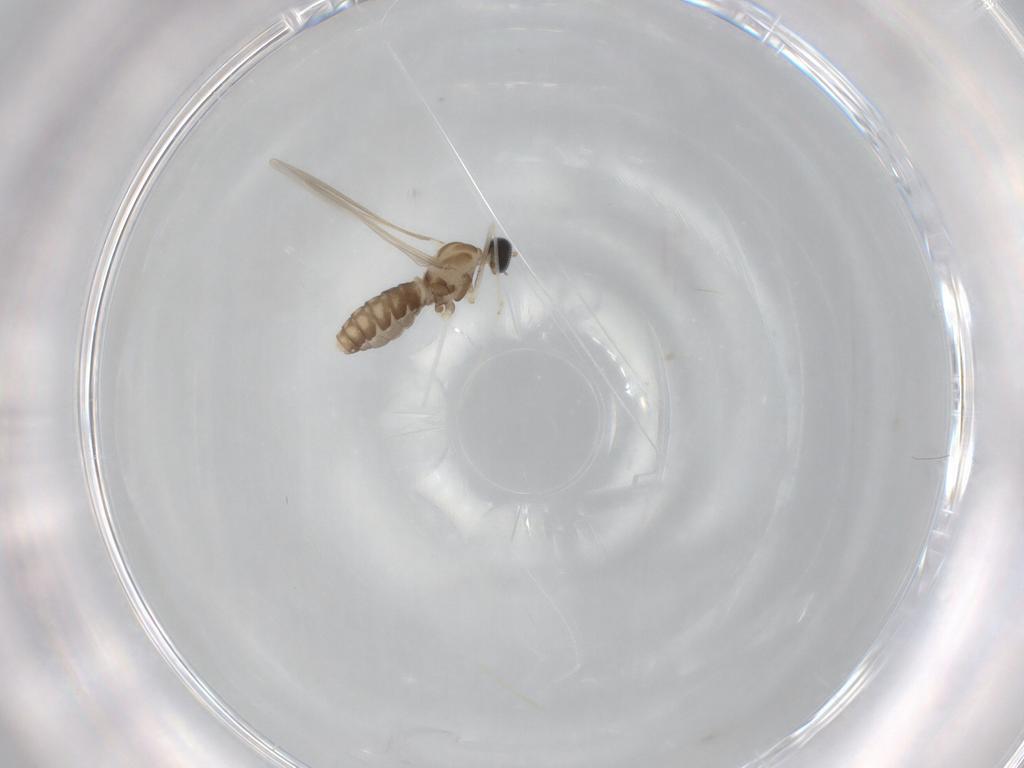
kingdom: Animalia
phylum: Arthropoda
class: Insecta
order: Diptera
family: Cecidomyiidae
